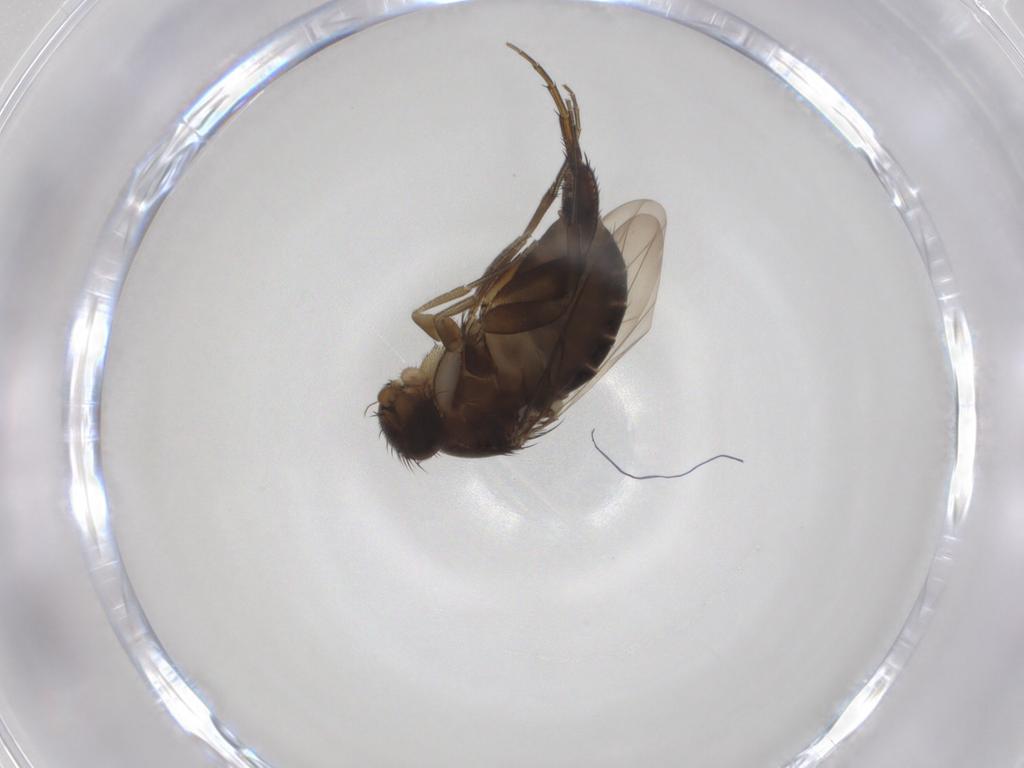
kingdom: Animalia
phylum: Arthropoda
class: Insecta
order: Diptera
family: Phoridae
